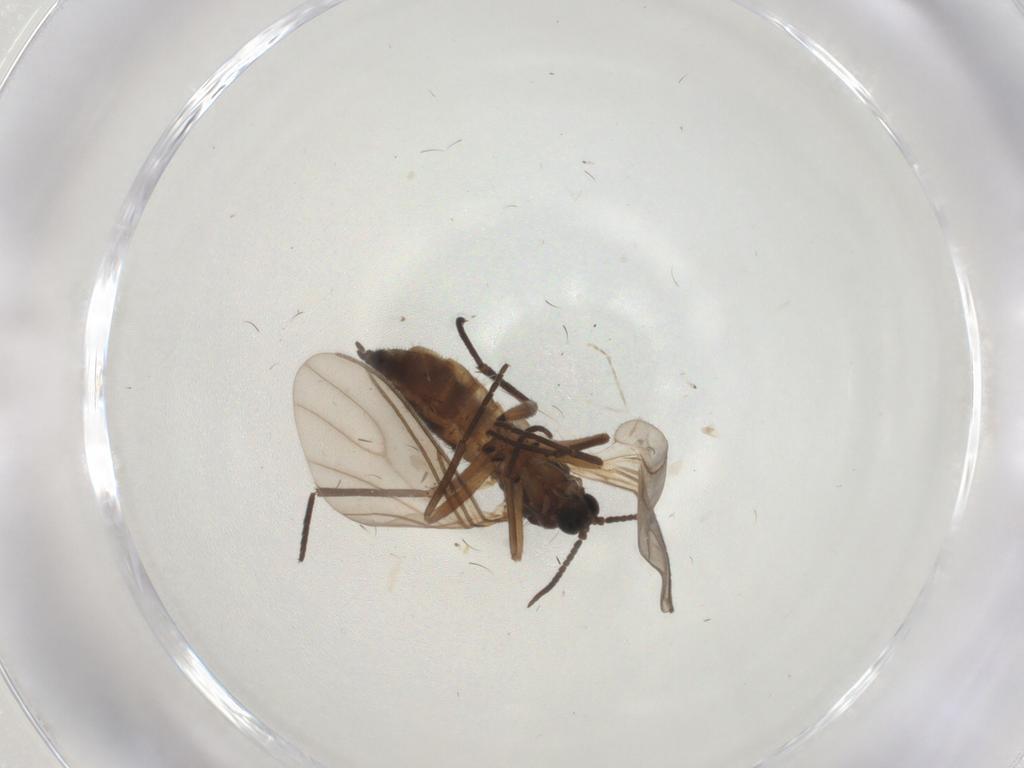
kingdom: Animalia
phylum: Arthropoda
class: Insecta
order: Diptera
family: Sciaridae
